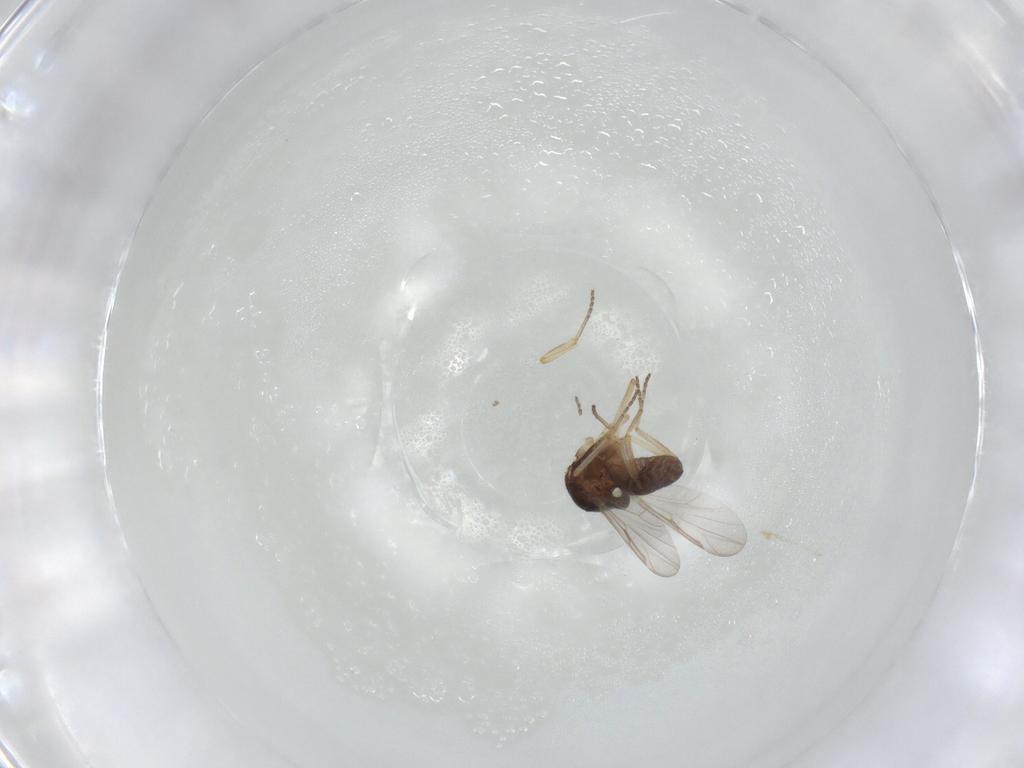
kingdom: Animalia
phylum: Arthropoda
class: Insecta
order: Diptera
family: Ceratopogonidae
